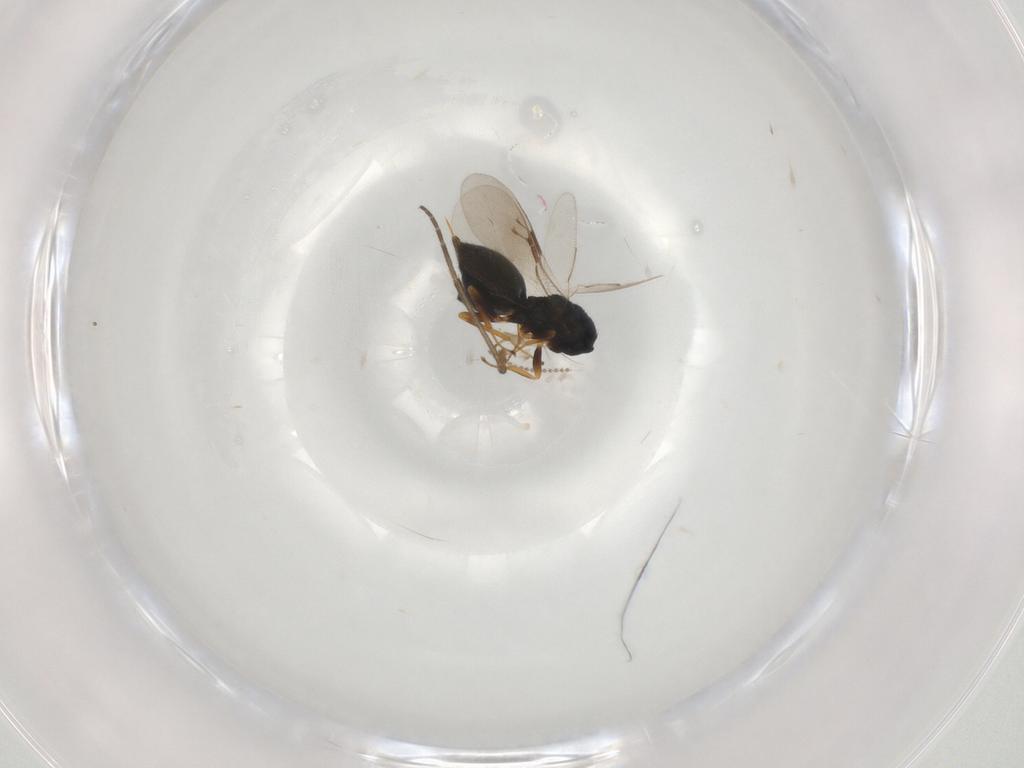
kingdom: Animalia
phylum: Arthropoda
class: Insecta
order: Hymenoptera
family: Pteromalidae
